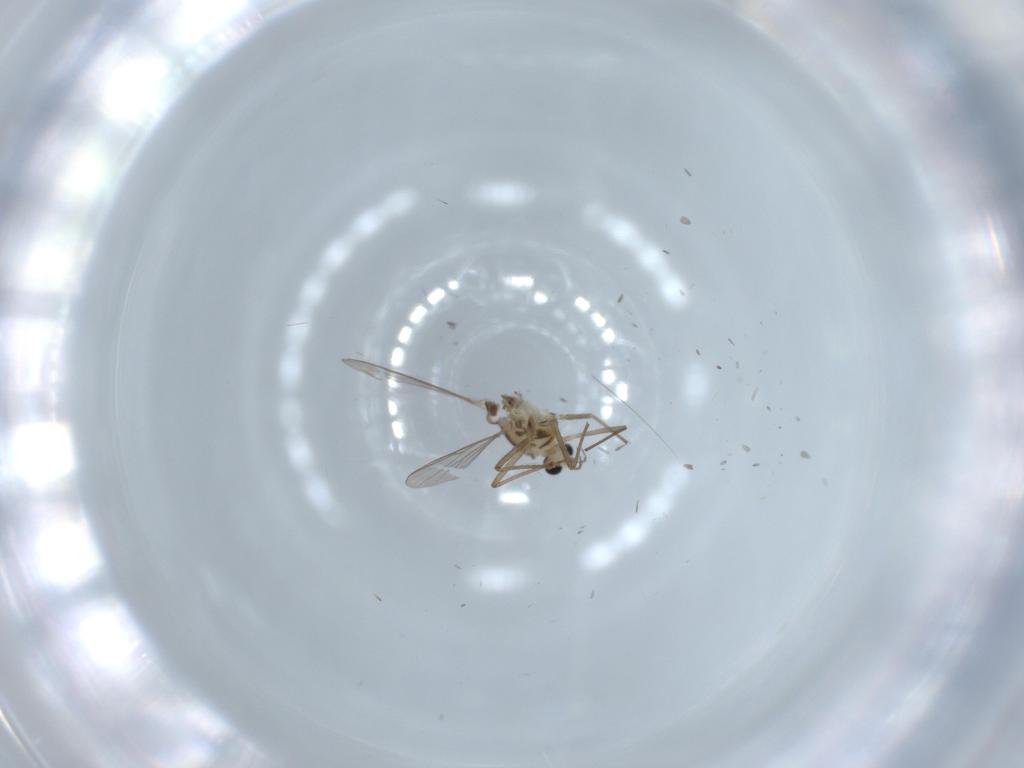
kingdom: Animalia
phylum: Arthropoda
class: Insecta
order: Diptera
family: Chironomidae
